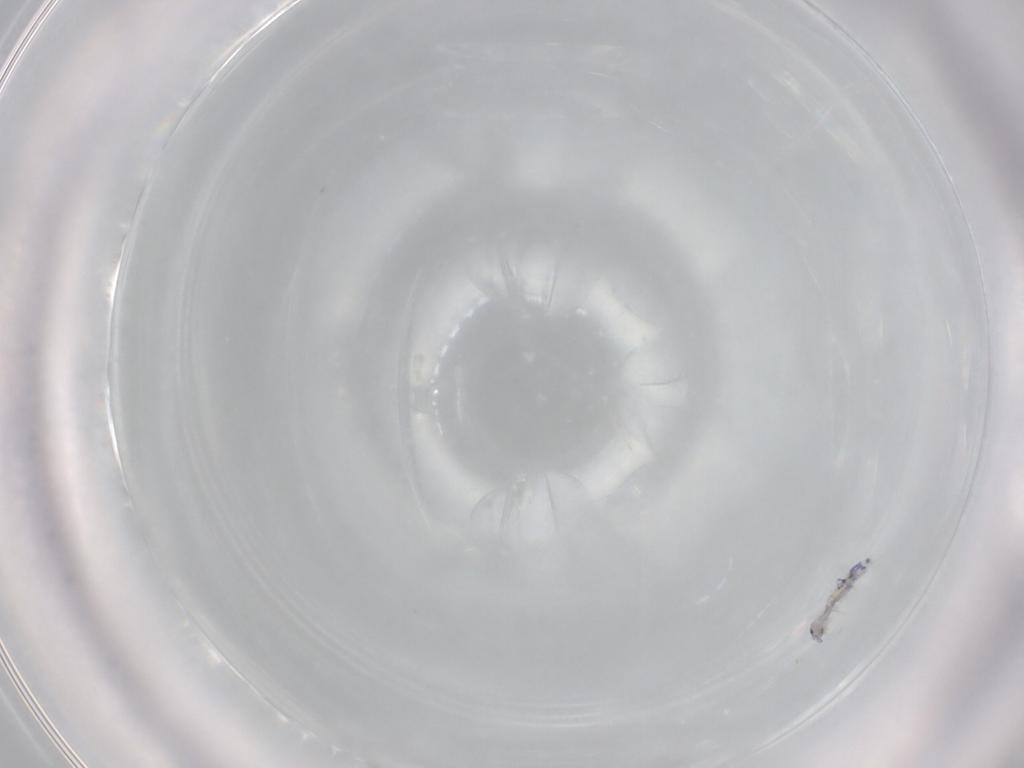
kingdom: Animalia
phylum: Arthropoda
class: Collembola
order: Entomobryomorpha
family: Entomobryidae
